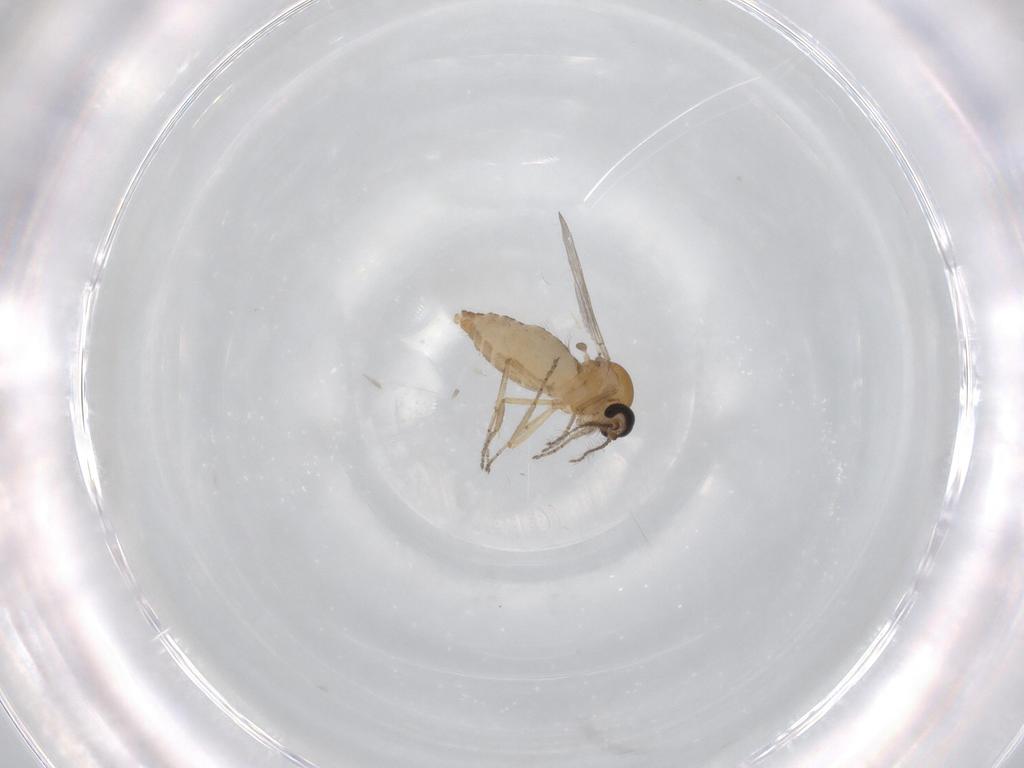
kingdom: Animalia
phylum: Arthropoda
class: Insecta
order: Diptera
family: Ceratopogonidae
